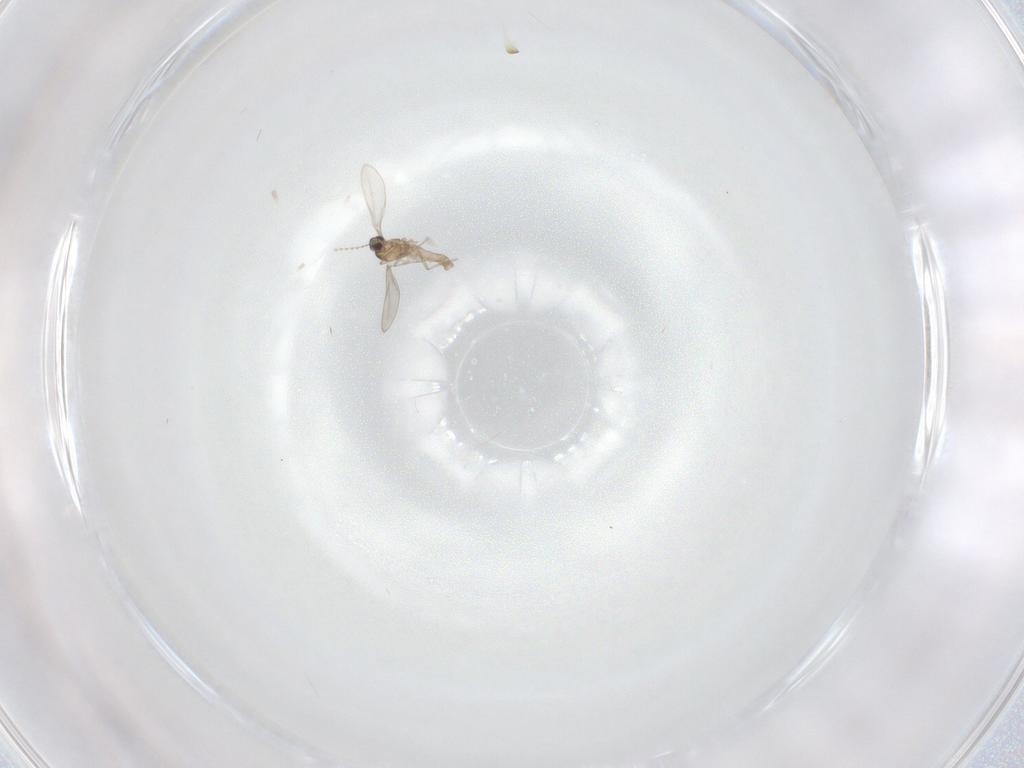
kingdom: Animalia
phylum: Arthropoda
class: Insecta
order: Diptera
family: Cecidomyiidae
